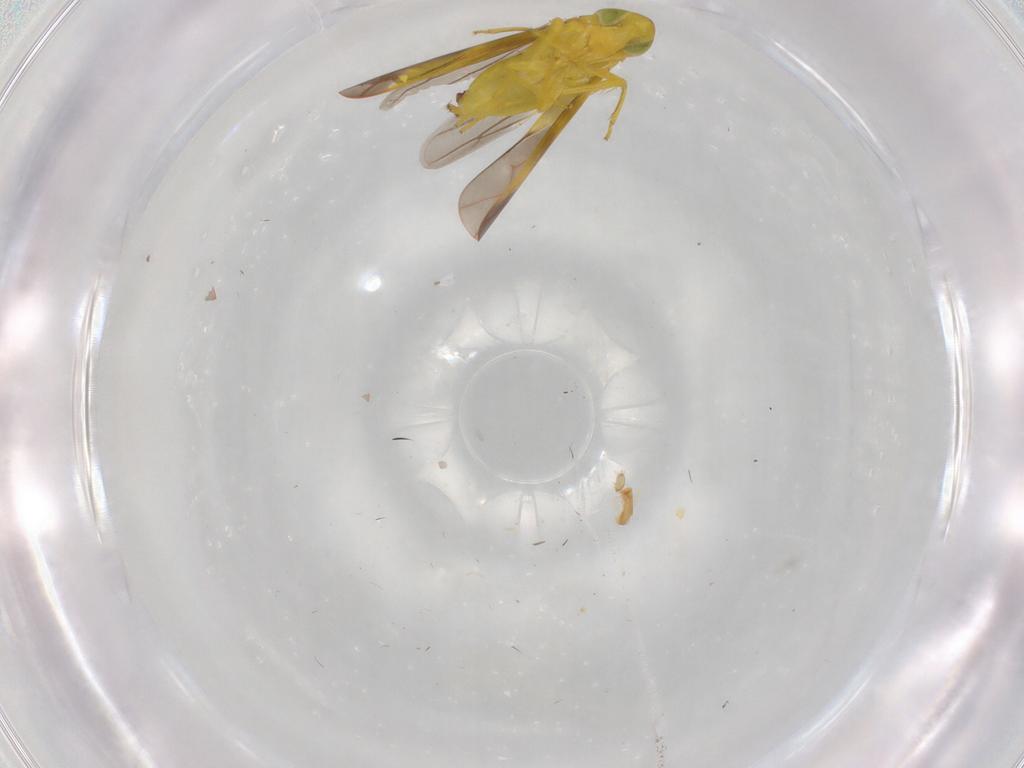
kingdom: Animalia
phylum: Arthropoda
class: Insecta
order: Hemiptera
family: Cicadellidae
